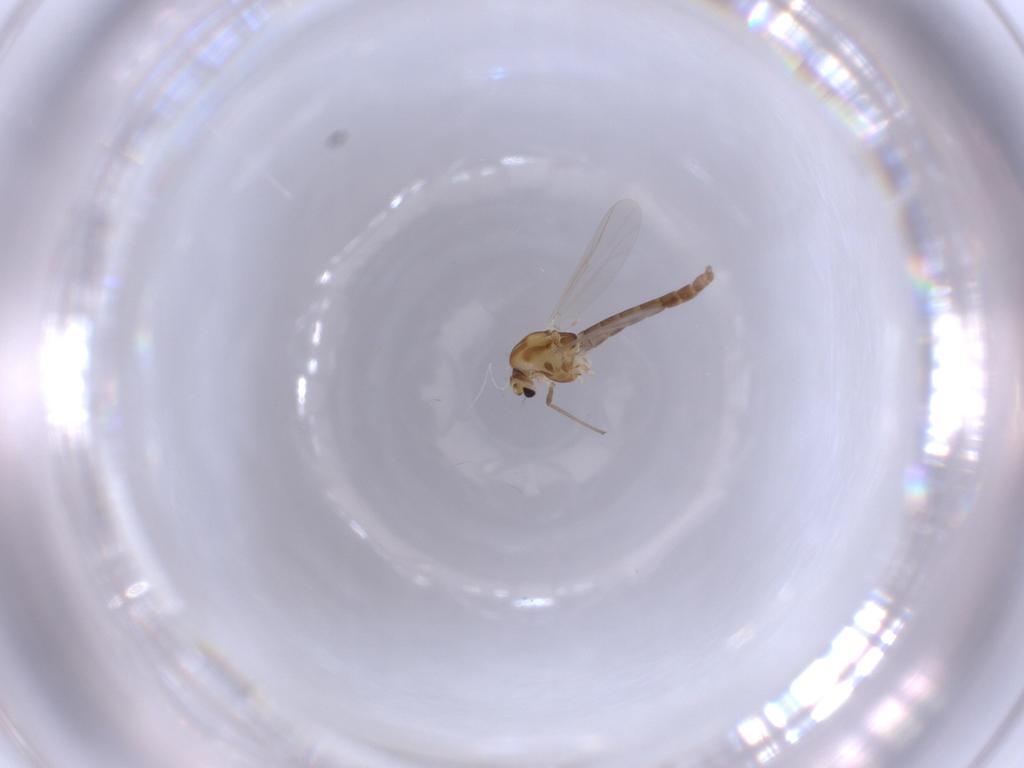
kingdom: Animalia
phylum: Arthropoda
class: Insecta
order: Diptera
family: Chironomidae
